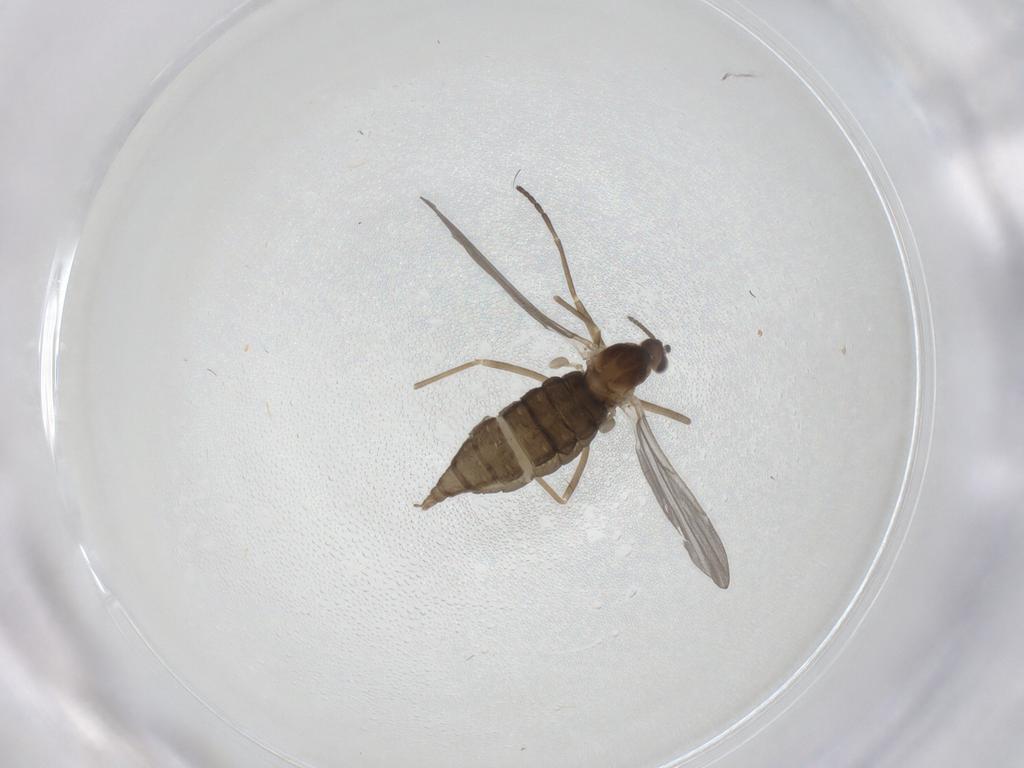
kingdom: Animalia
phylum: Arthropoda
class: Insecta
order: Diptera
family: Cecidomyiidae
